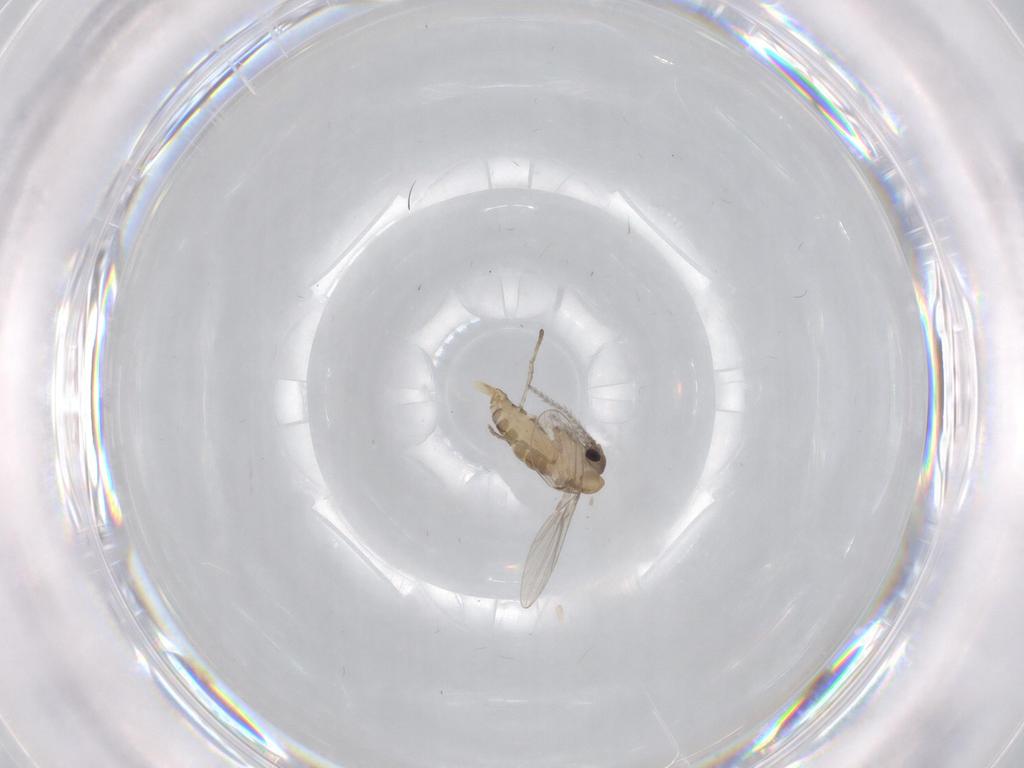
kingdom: Animalia
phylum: Arthropoda
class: Insecta
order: Diptera
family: Psychodidae
